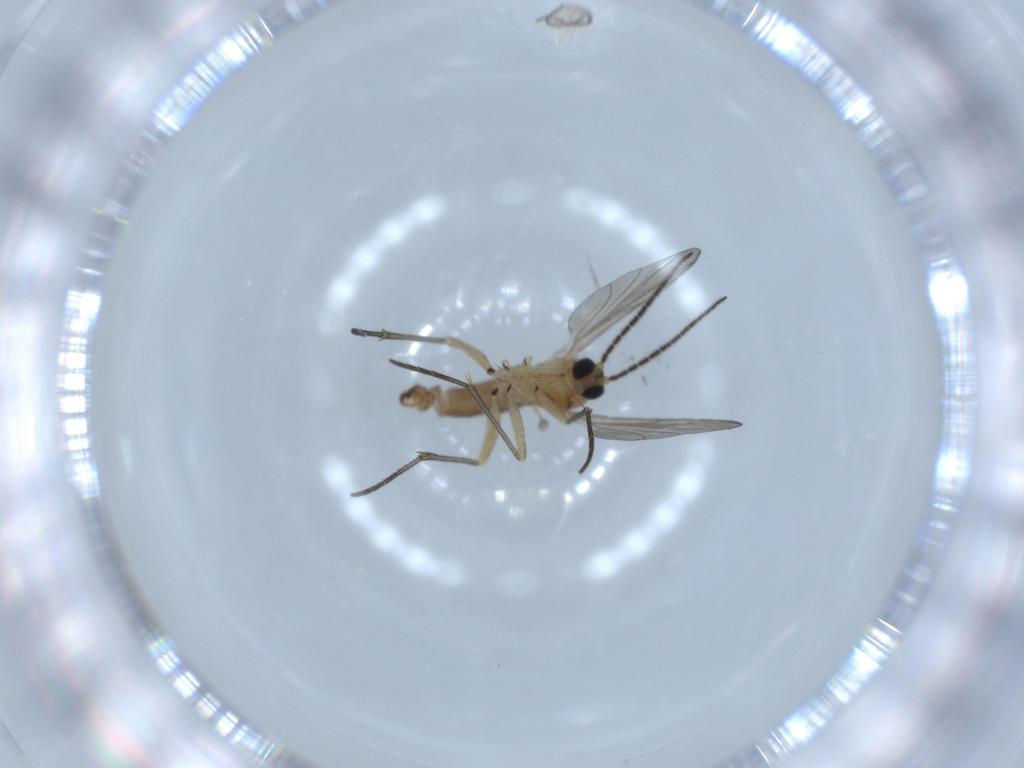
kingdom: Animalia
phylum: Arthropoda
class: Insecta
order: Diptera
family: Sciaridae
